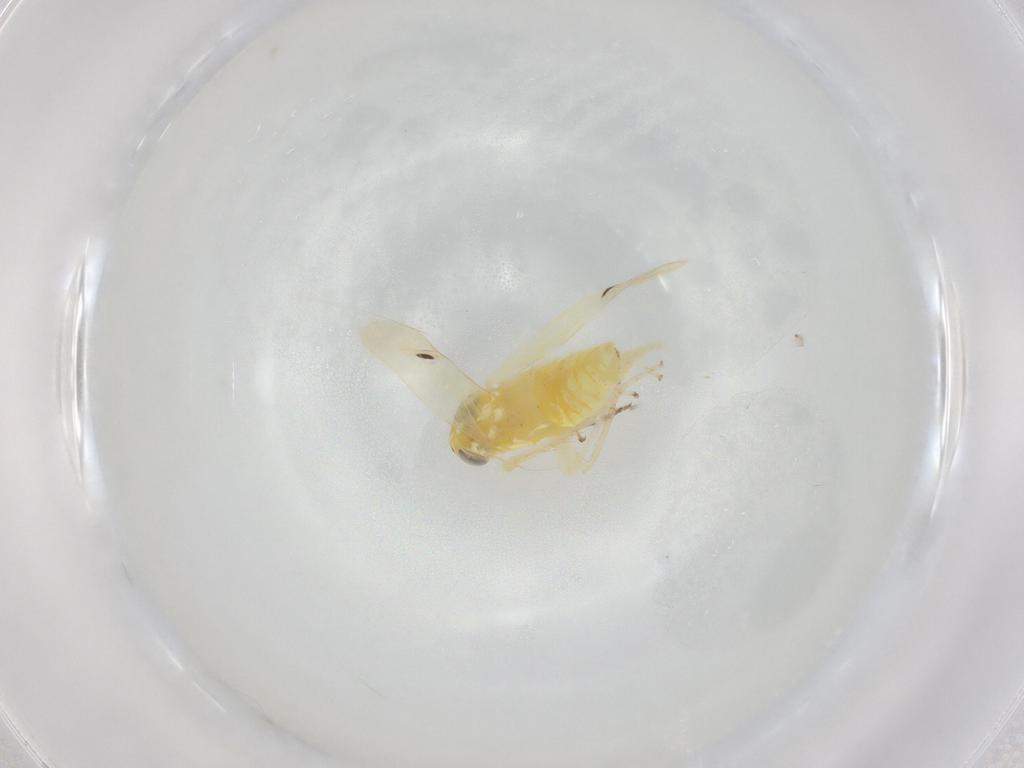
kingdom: Animalia
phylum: Arthropoda
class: Insecta
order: Hemiptera
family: Cicadellidae
